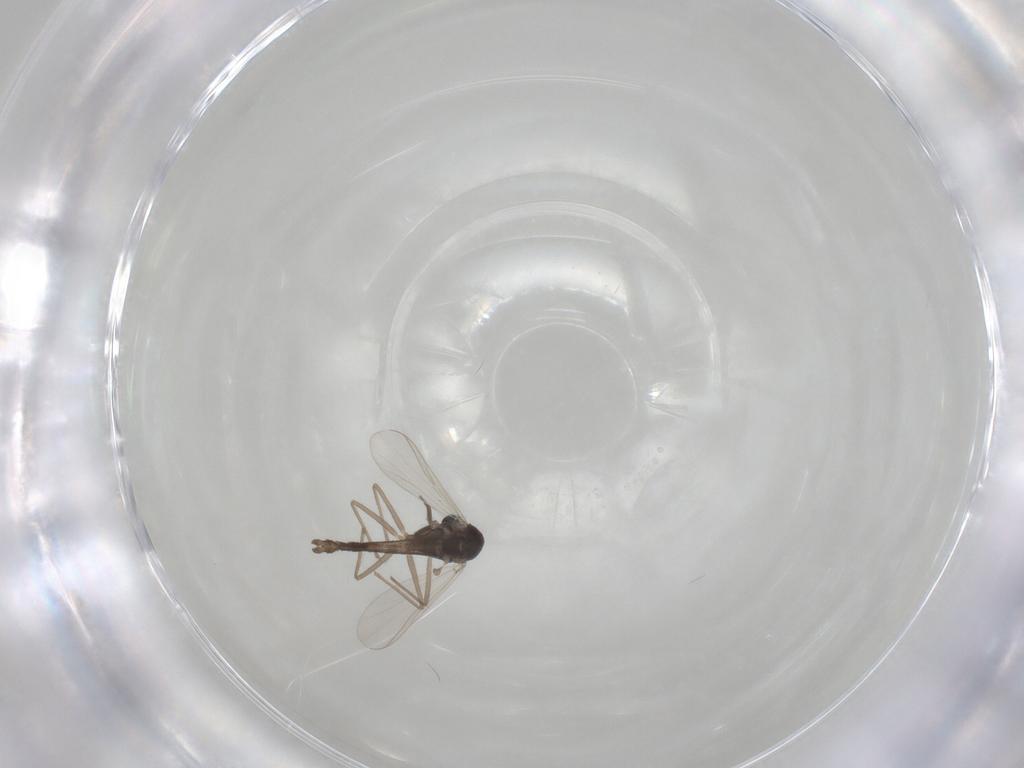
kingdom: Animalia
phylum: Arthropoda
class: Insecta
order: Diptera
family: Chironomidae
